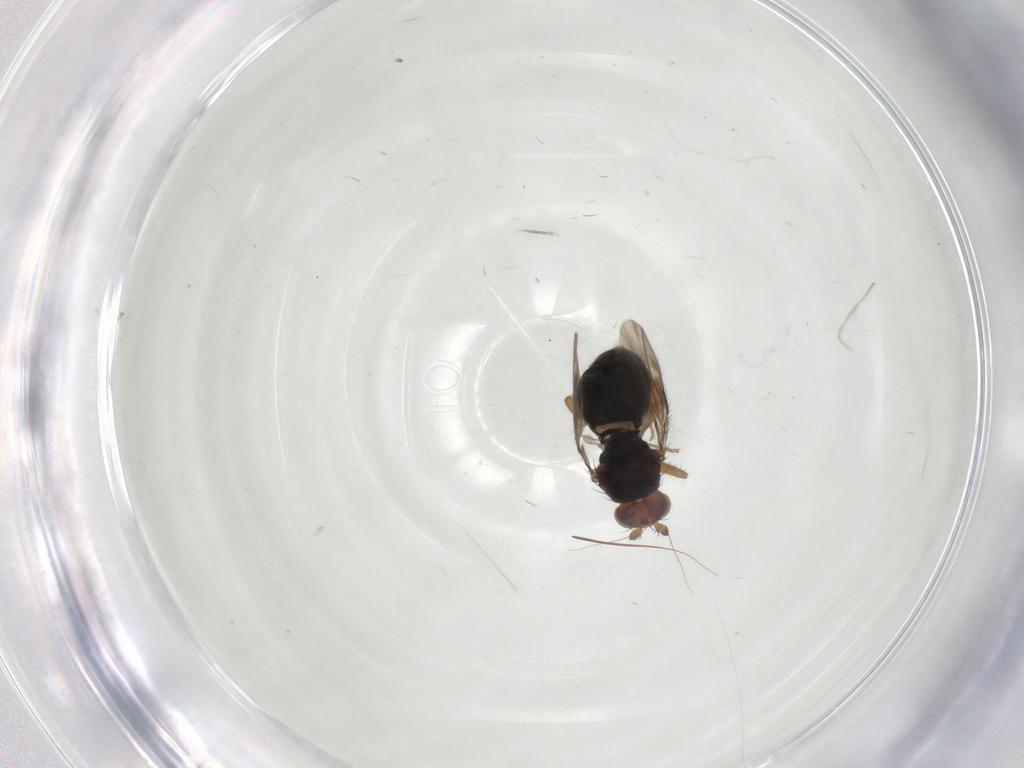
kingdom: Animalia
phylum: Arthropoda
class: Insecta
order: Diptera
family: Sphaeroceridae
